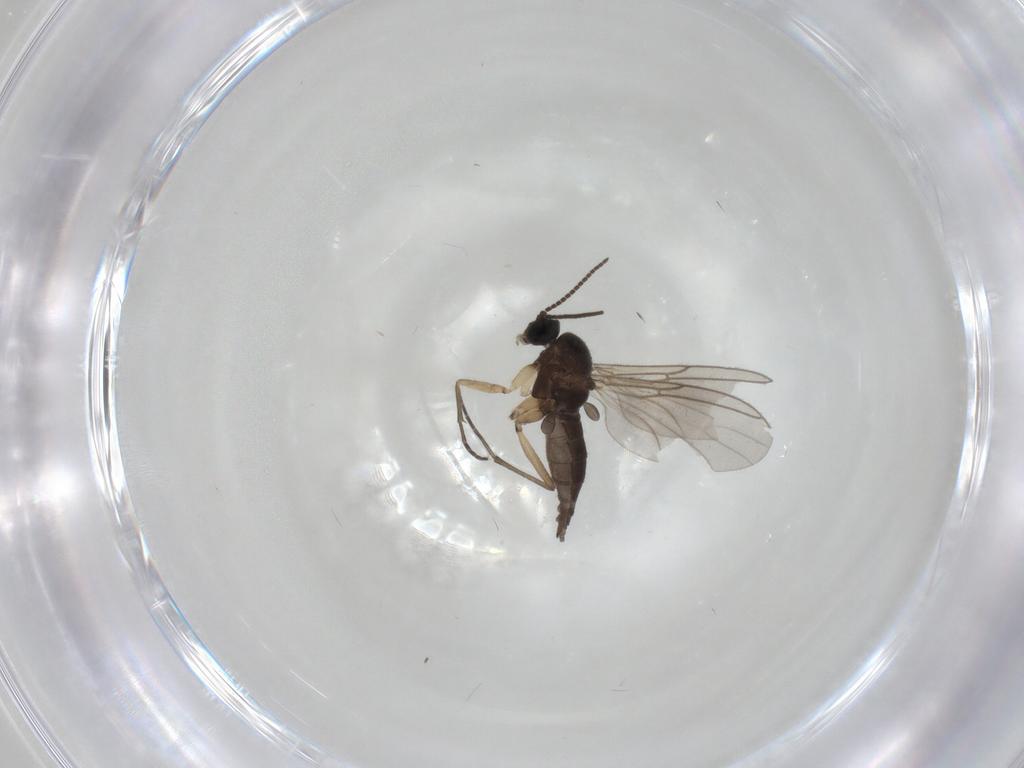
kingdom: Animalia
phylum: Arthropoda
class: Insecta
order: Diptera
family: Sciaridae
